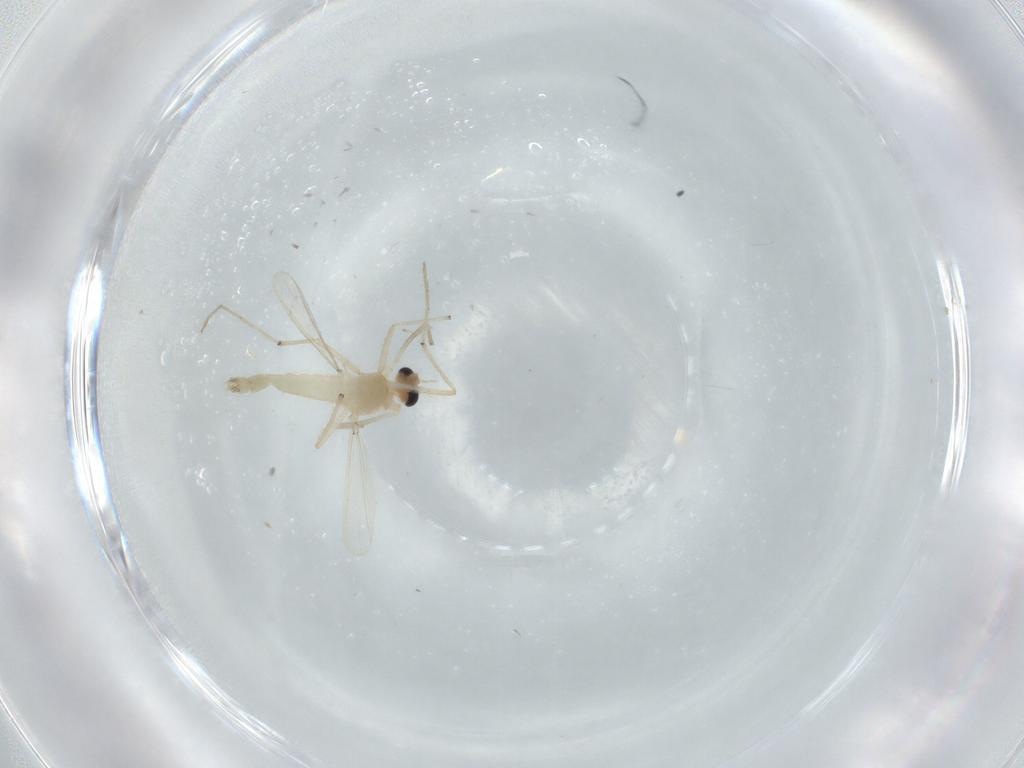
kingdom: Animalia
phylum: Arthropoda
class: Insecta
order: Diptera
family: Chironomidae
